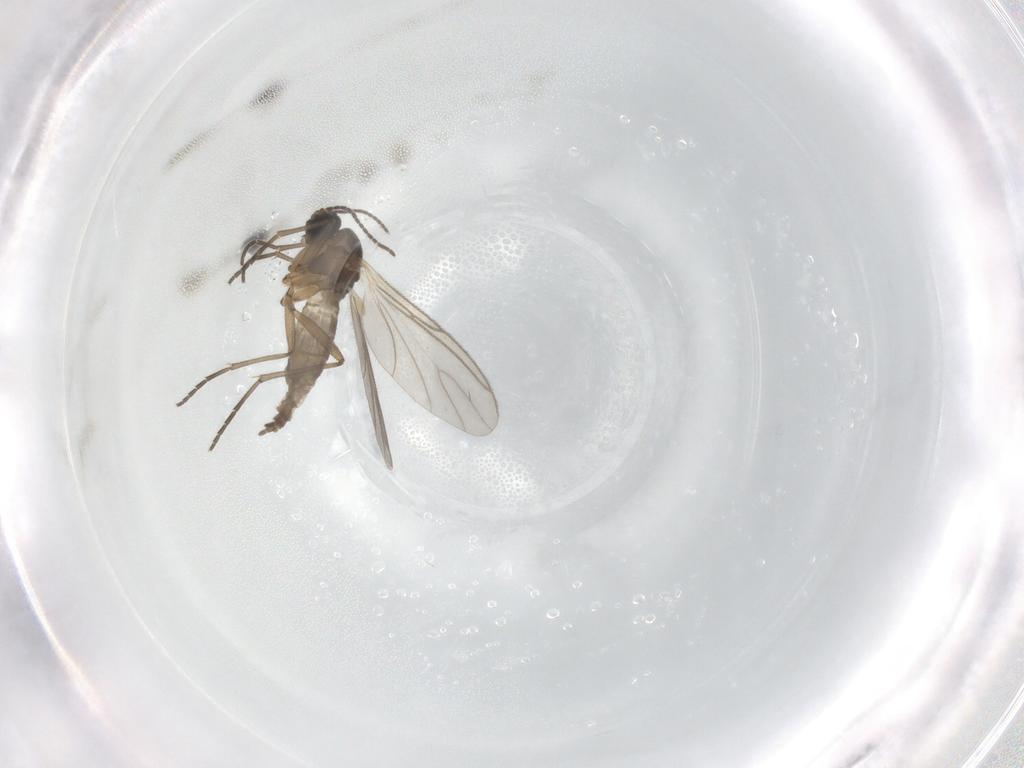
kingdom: Animalia
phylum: Arthropoda
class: Insecta
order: Diptera
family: Cecidomyiidae
